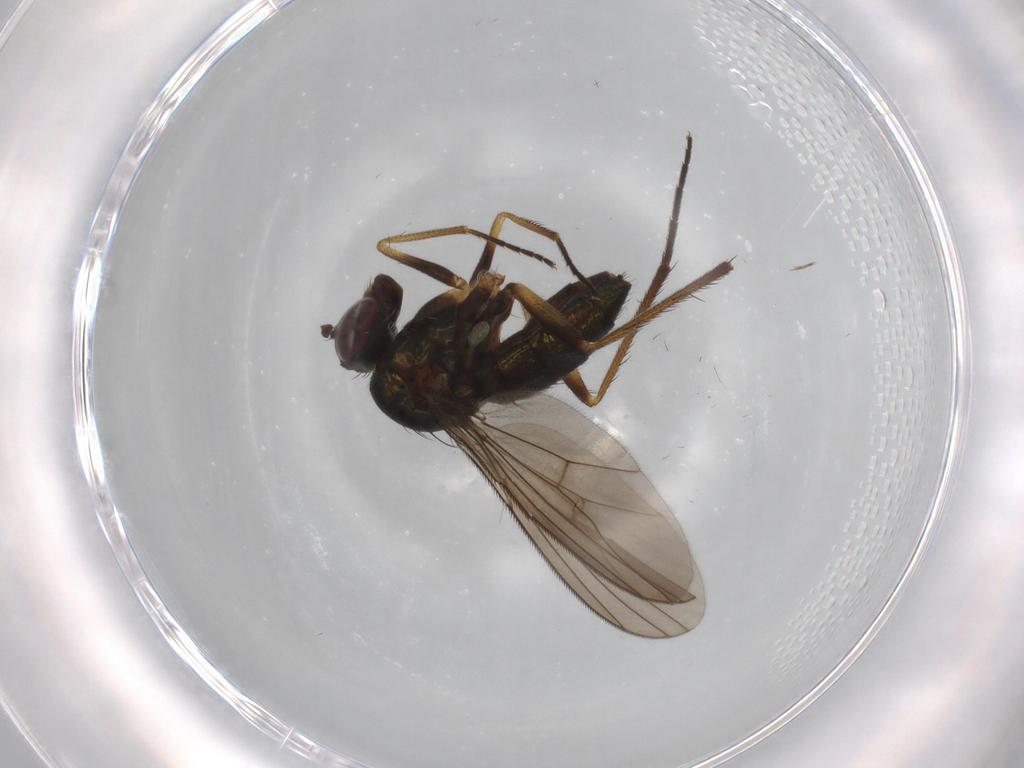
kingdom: Animalia
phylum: Arthropoda
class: Insecta
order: Diptera
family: Dolichopodidae
